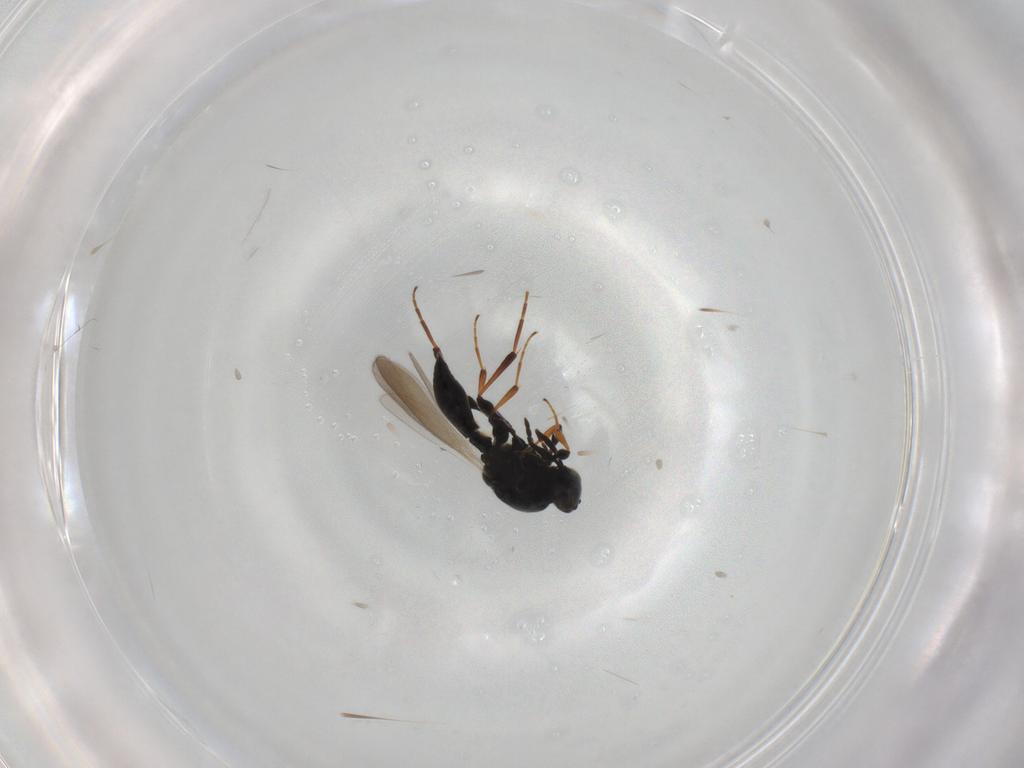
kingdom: Animalia
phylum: Arthropoda
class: Insecta
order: Hymenoptera
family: Platygastridae
